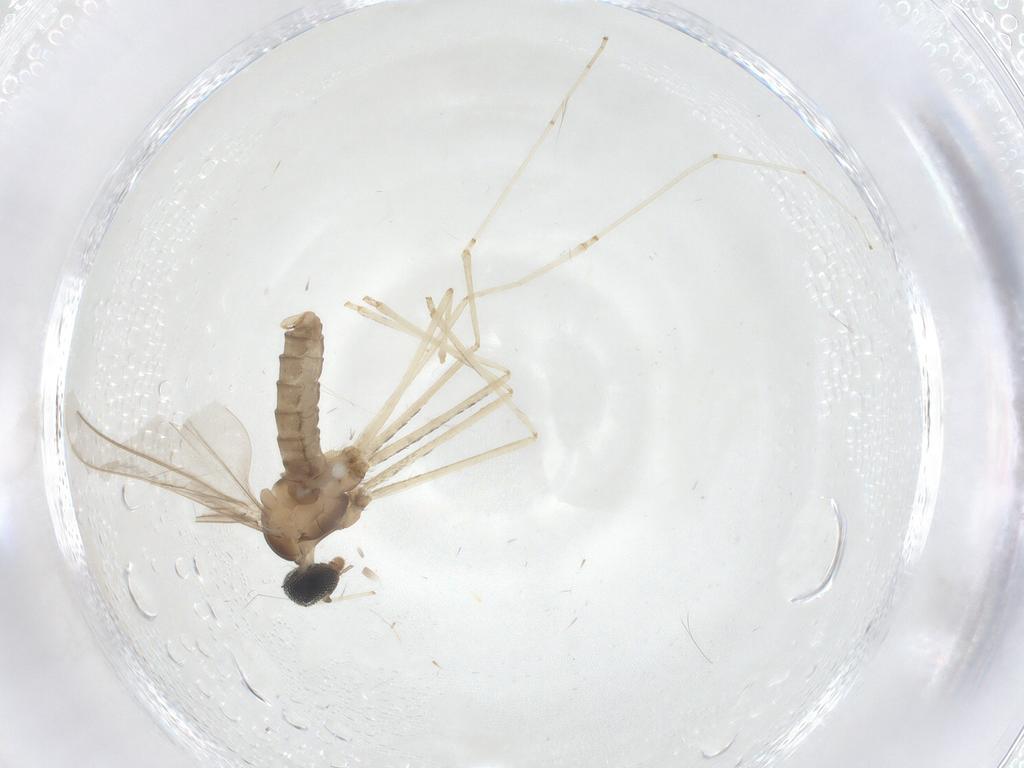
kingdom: Animalia
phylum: Arthropoda
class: Insecta
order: Diptera
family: Cecidomyiidae
